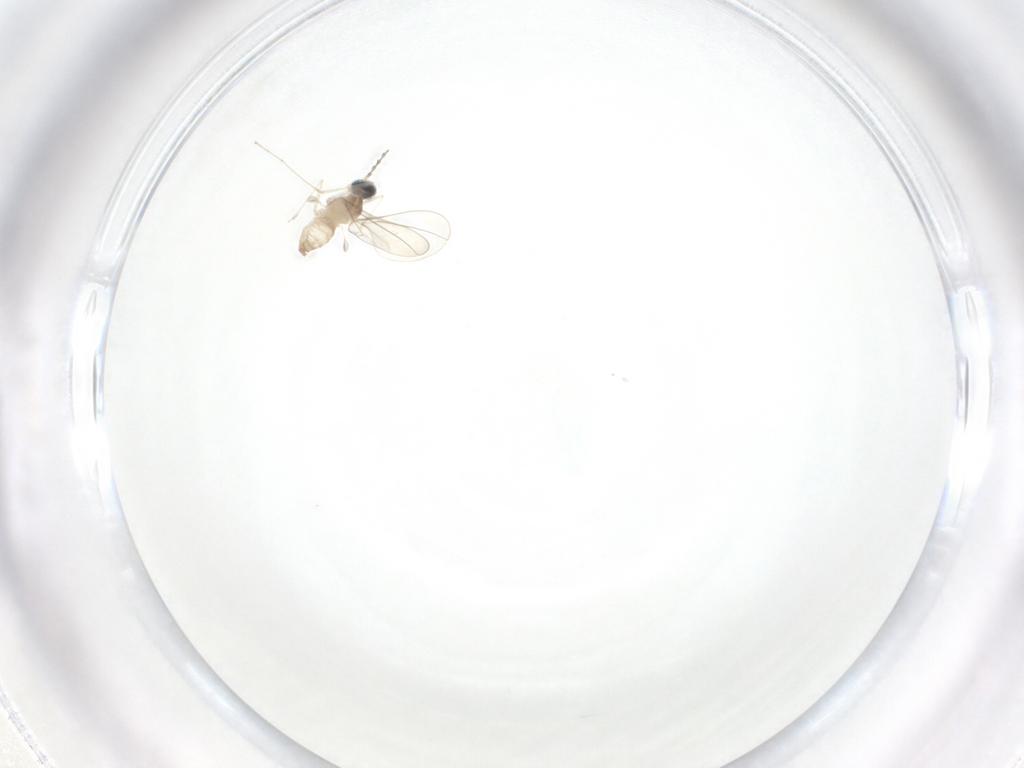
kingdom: Animalia
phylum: Arthropoda
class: Insecta
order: Diptera
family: Cecidomyiidae
